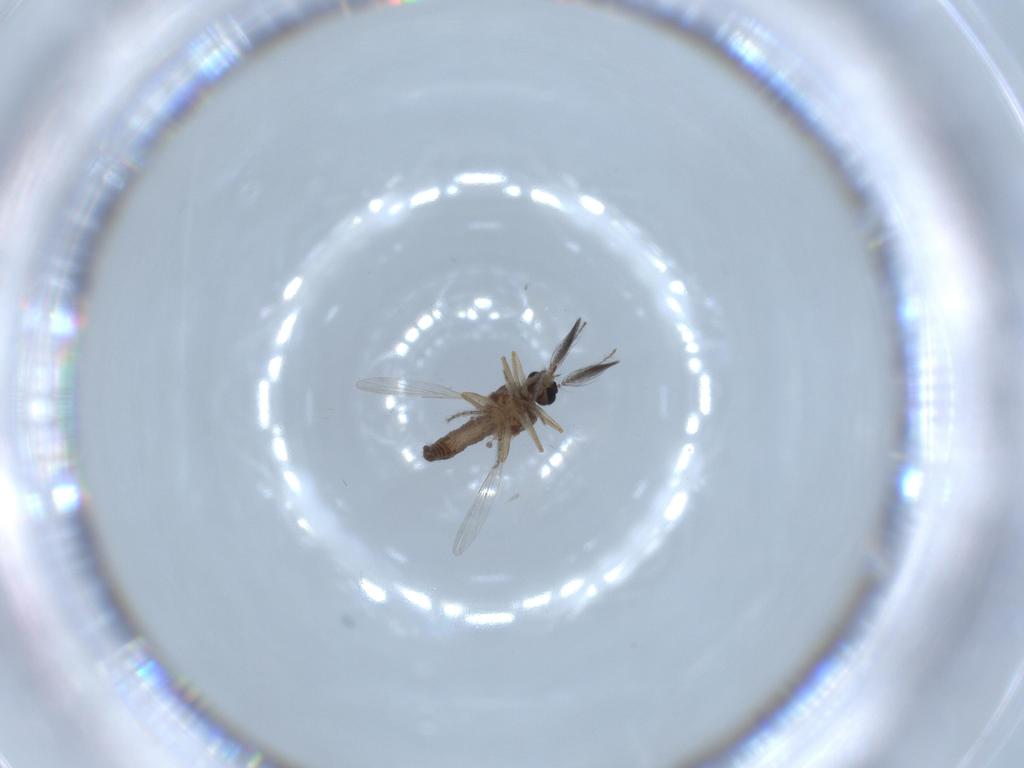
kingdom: Animalia
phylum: Arthropoda
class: Insecta
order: Diptera
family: Ceratopogonidae
